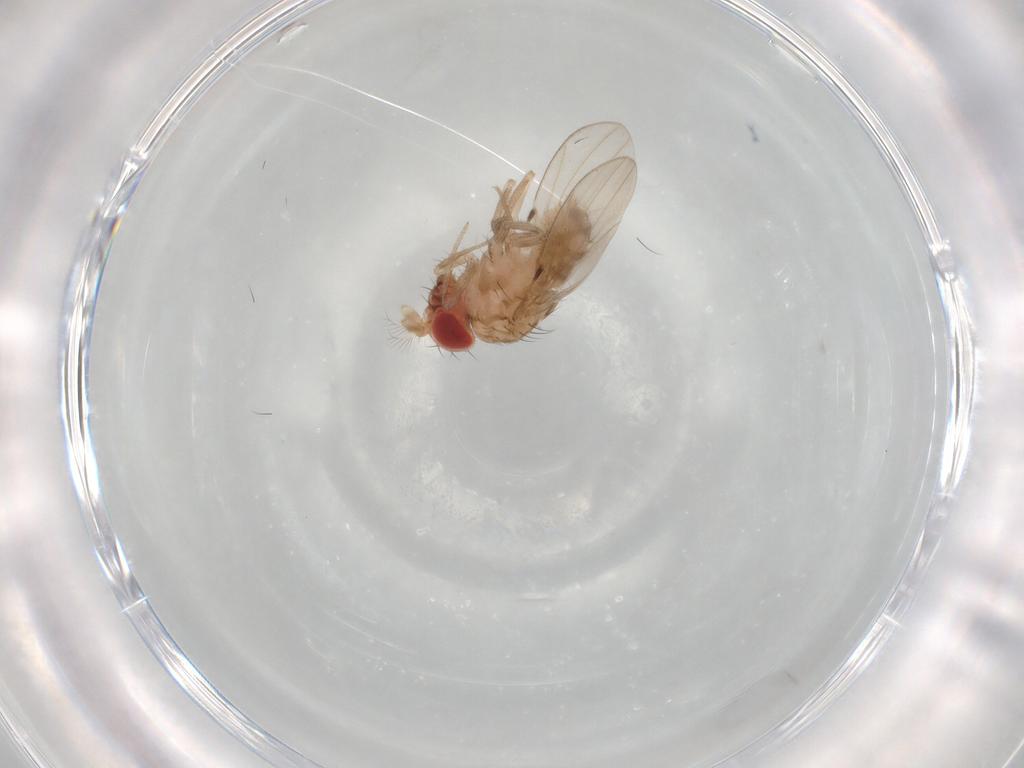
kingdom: Animalia
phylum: Arthropoda
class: Insecta
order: Diptera
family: Drosophilidae
